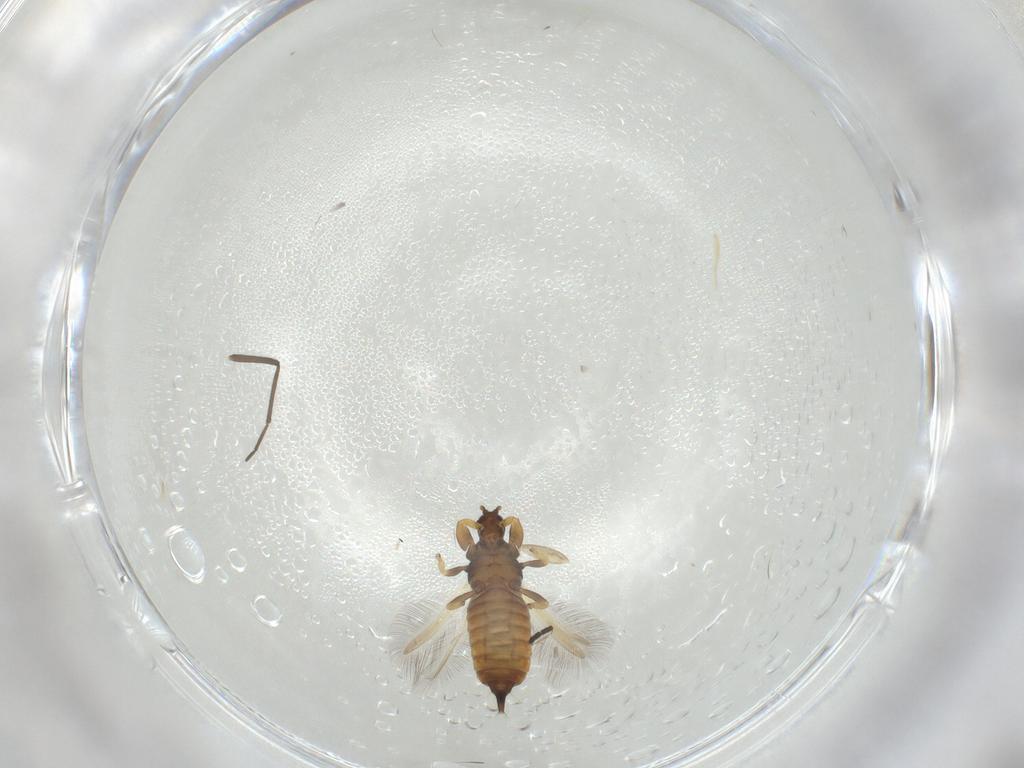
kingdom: Animalia
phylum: Arthropoda
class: Insecta
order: Thysanoptera
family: Phlaeothripidae
